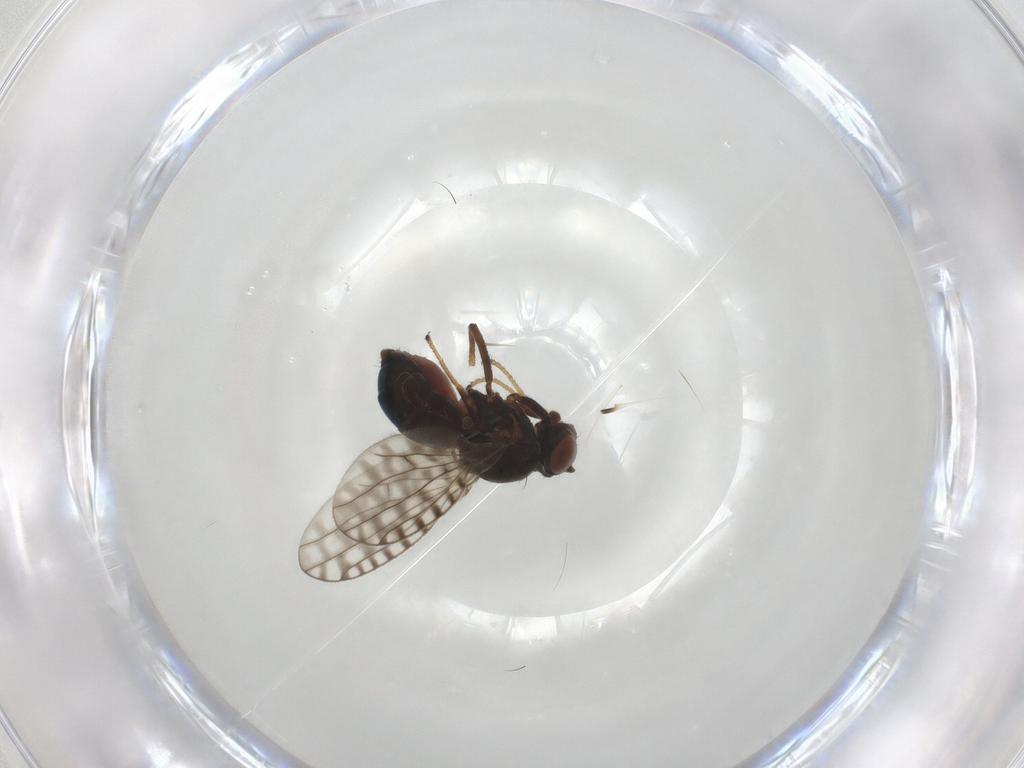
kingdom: Animalia
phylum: Arthropoda
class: Insecta
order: Diptera
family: Ephydridae
